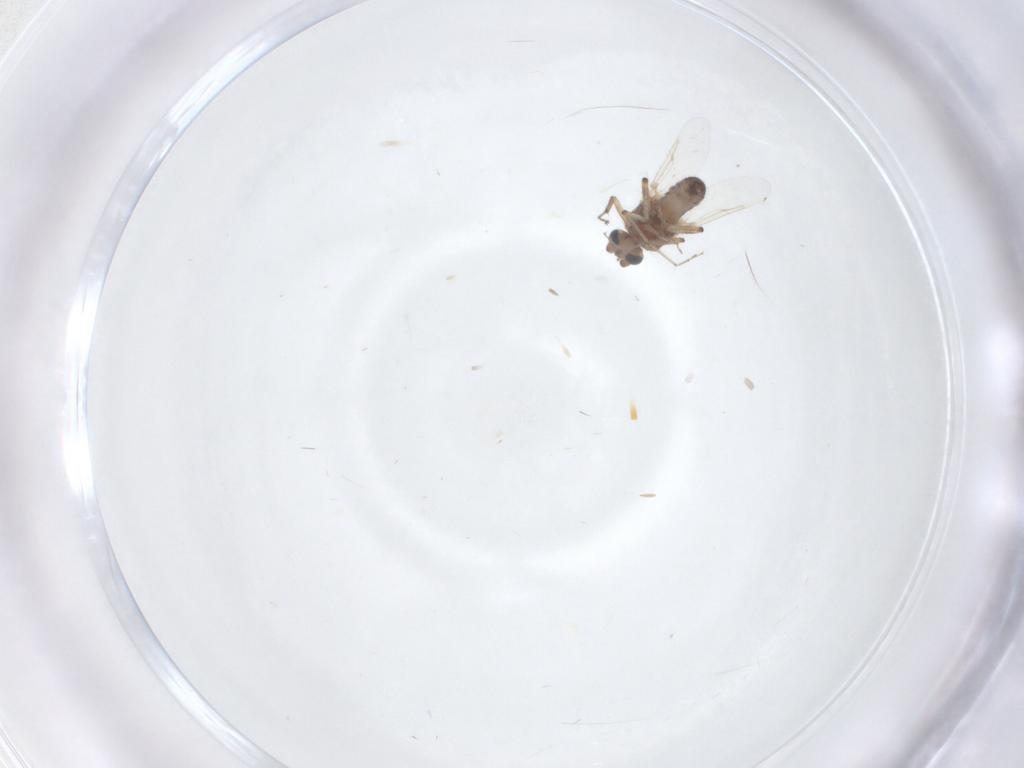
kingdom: Animalia
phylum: Arthropoda
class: Insecta
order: Diptera
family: Ceratopogonidae
